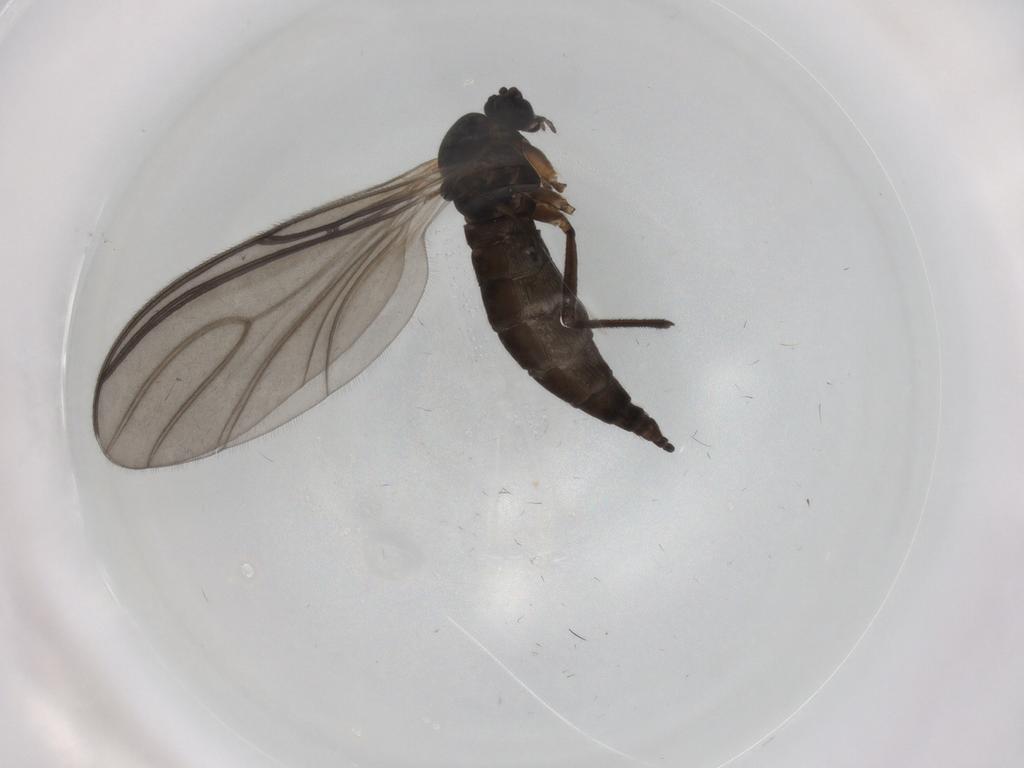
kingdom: Animalia
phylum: Arthropoda
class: Insecta
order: Diptera
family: Sciaridae
